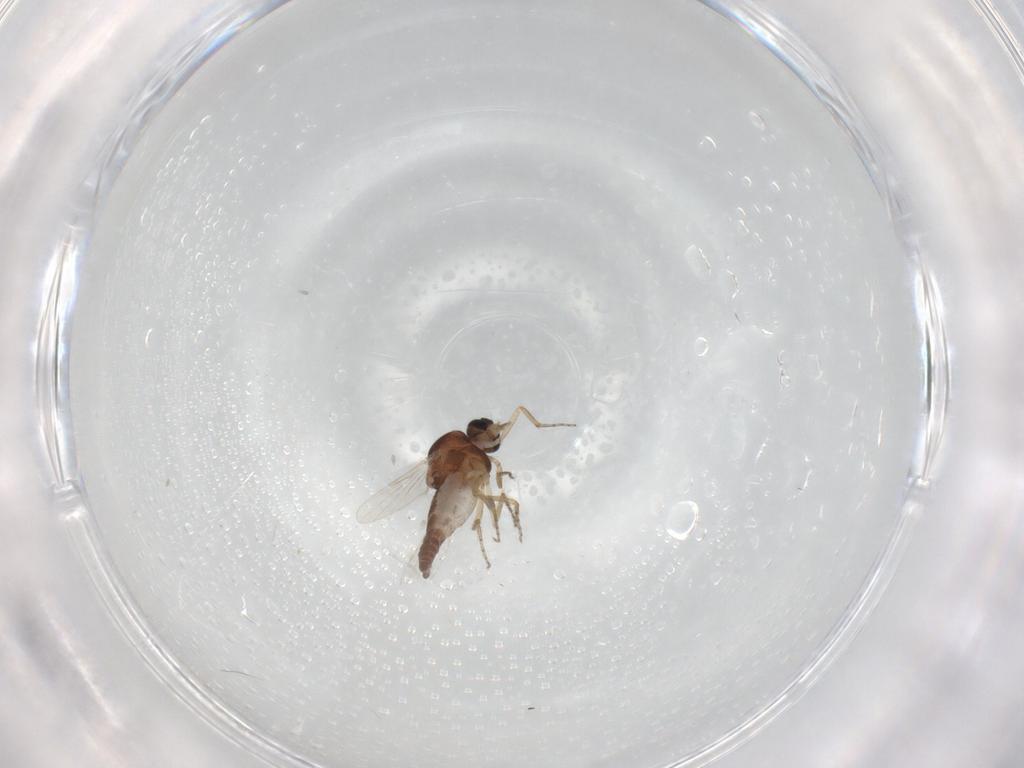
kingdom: Animalia
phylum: Arthropoda
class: Insecta
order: Diptera
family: Ceratopogonidae
